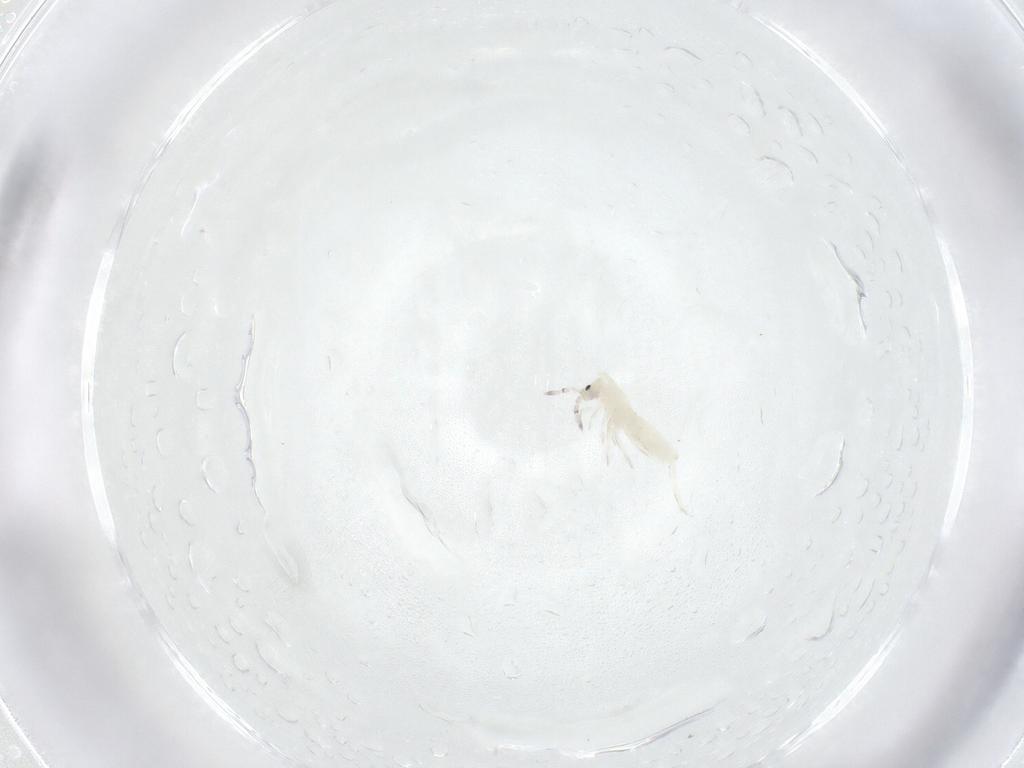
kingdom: Animalia
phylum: Arthropoda
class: Collembola
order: Entomobryomorpha
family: Entomobryidae
